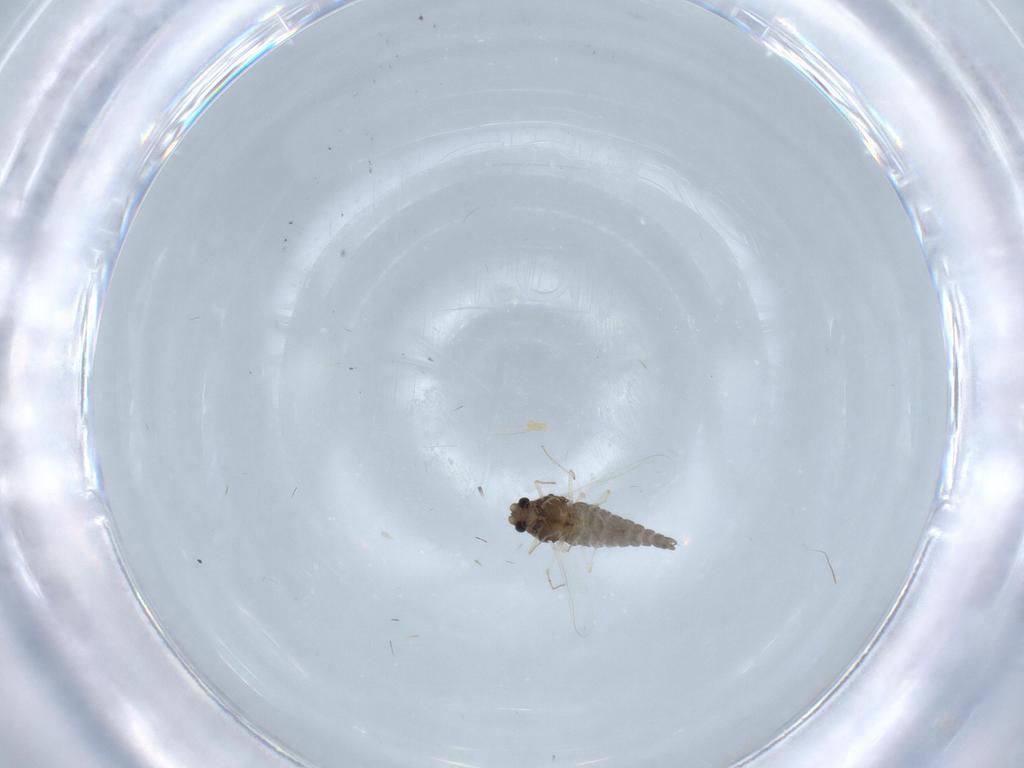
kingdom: Animalia
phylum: Arthropoda
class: Insecta
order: Diptera
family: Chironomidae
